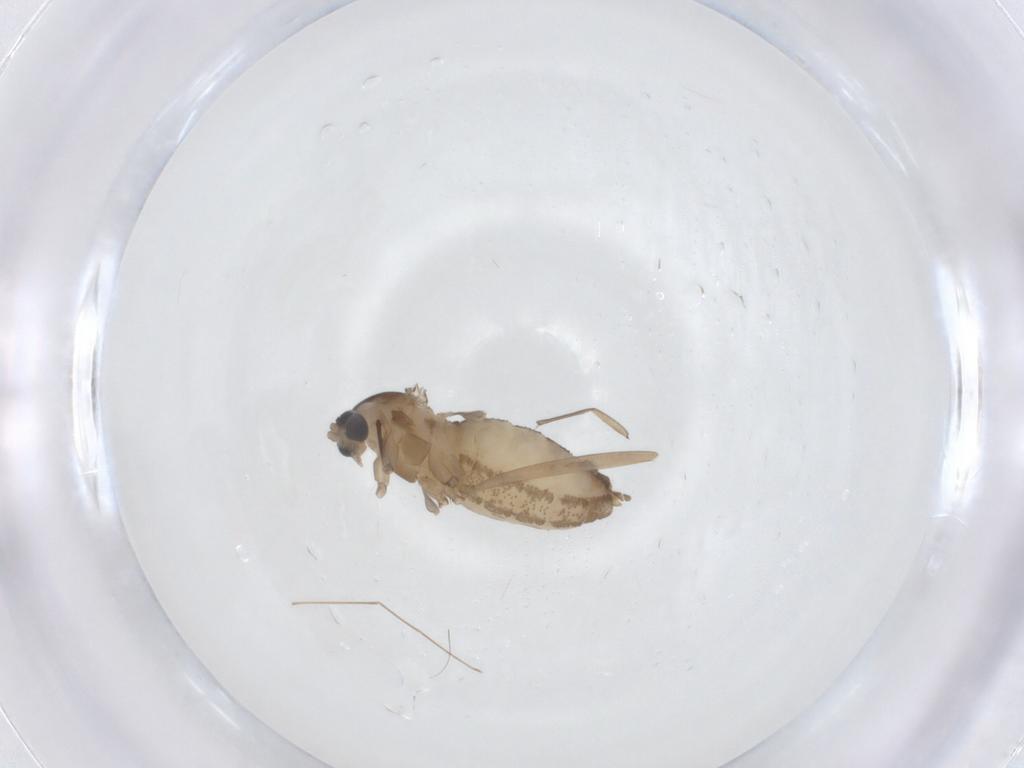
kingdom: Animalia
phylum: Arthropoda
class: Insecta
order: Diptera
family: Cecidomyiidae
